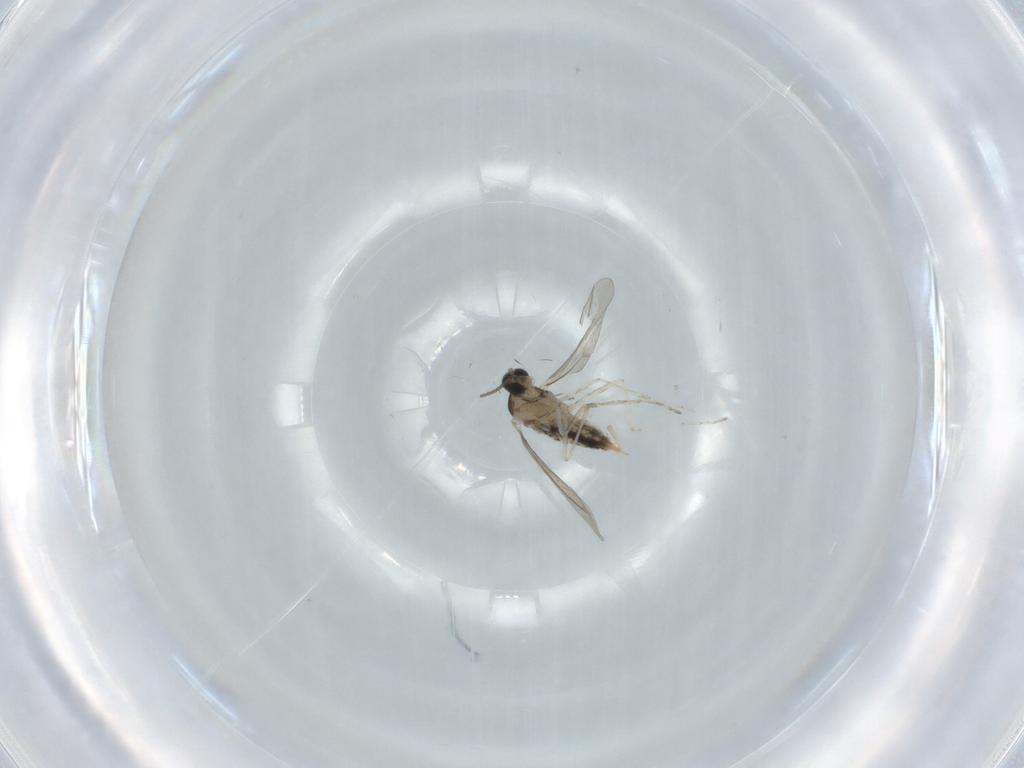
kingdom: Animalia
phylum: Arthropoda
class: Insecta
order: Diptera
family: Cecidomyiidae
